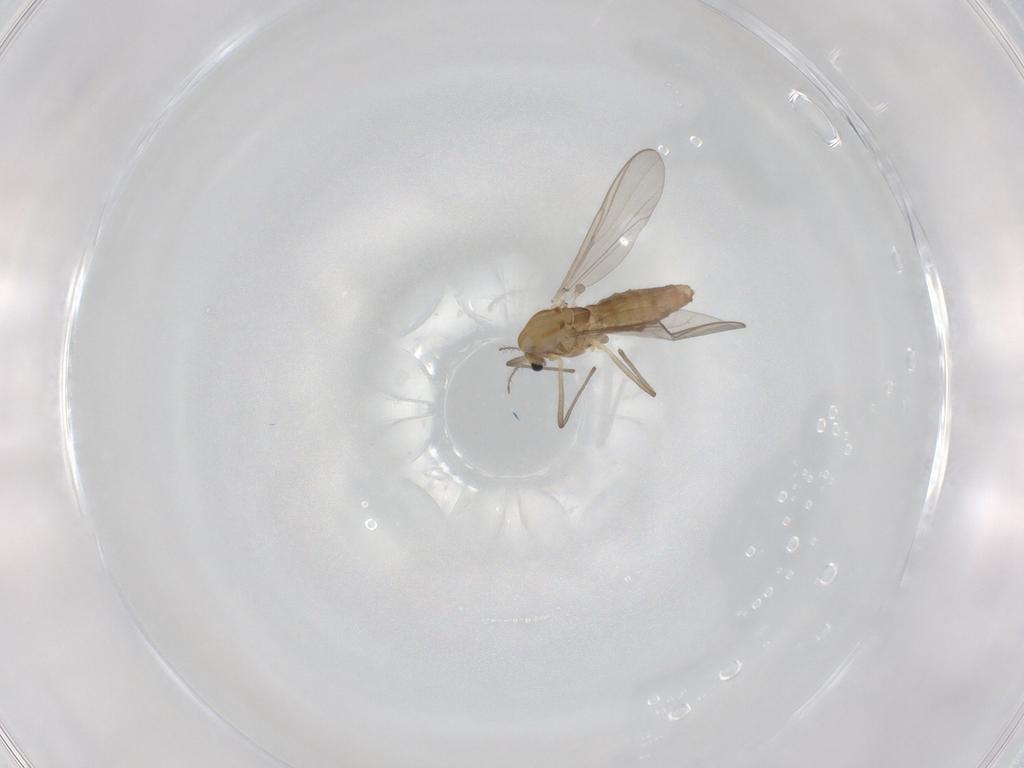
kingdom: Animalia
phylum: Arthropoda
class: Insecta
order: Diptera
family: Chironomidae
